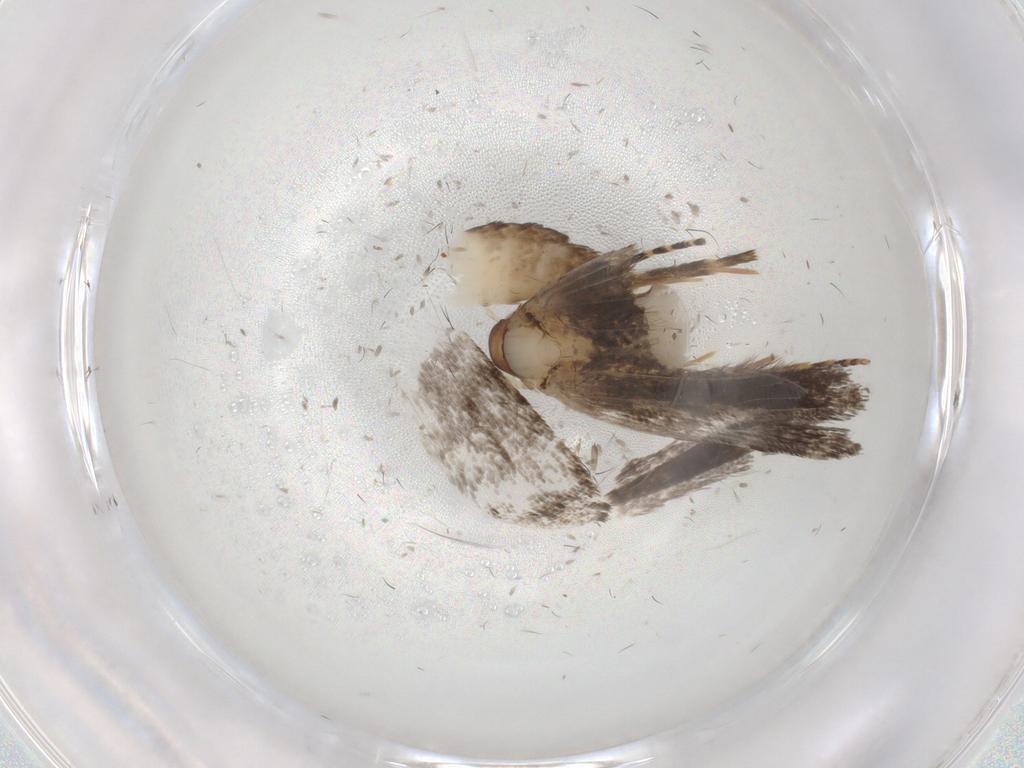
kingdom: Animalia
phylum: Arthropoda
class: Insecta
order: Lepidoptera
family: Gelechiidae
